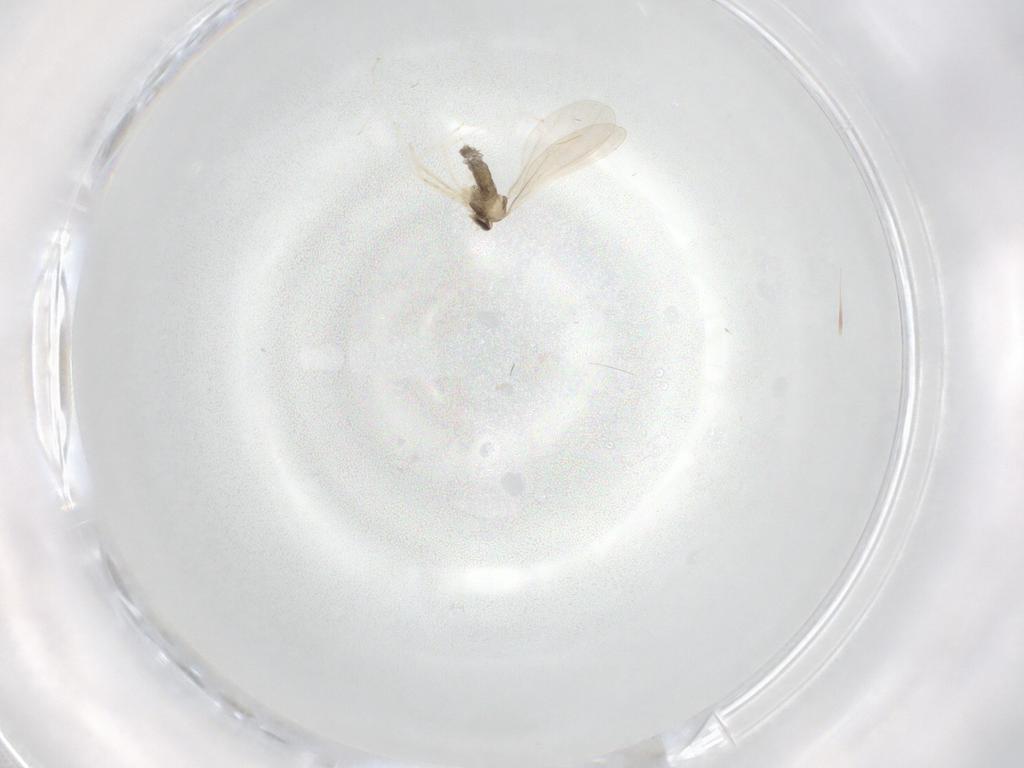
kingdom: Animalia
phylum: Arthropoda
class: Insecta
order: Diptera
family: Cecidomyiidae
